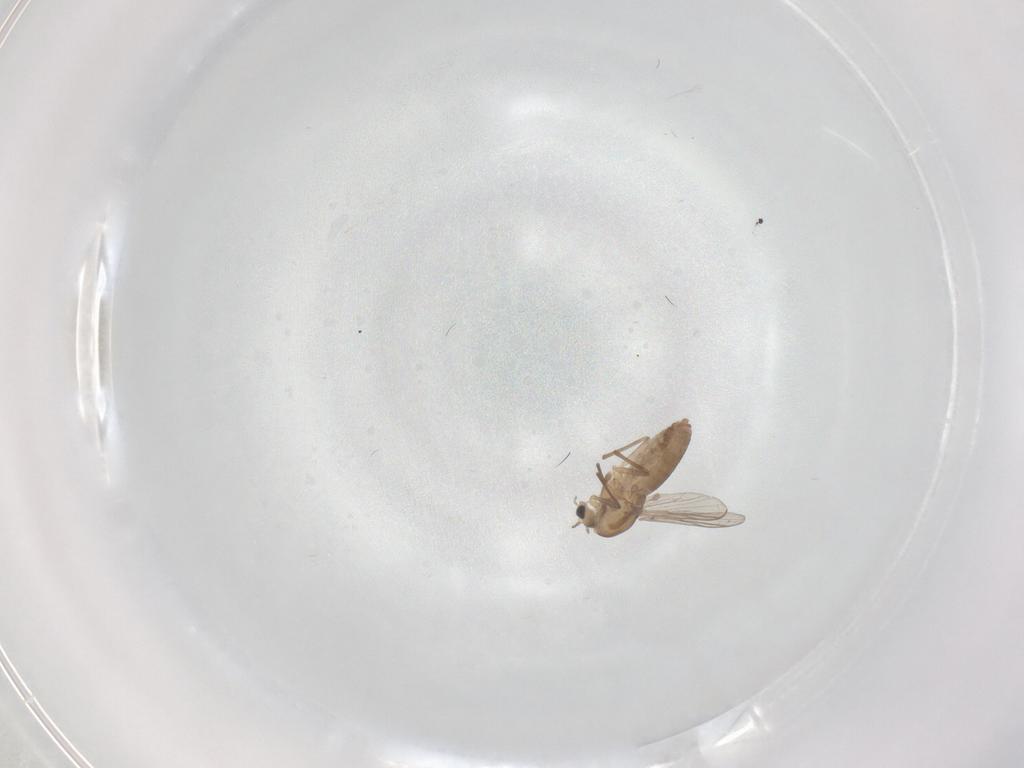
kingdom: Animalia
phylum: Arthropoda
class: Insecta
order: Diptera
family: Chironomidae
